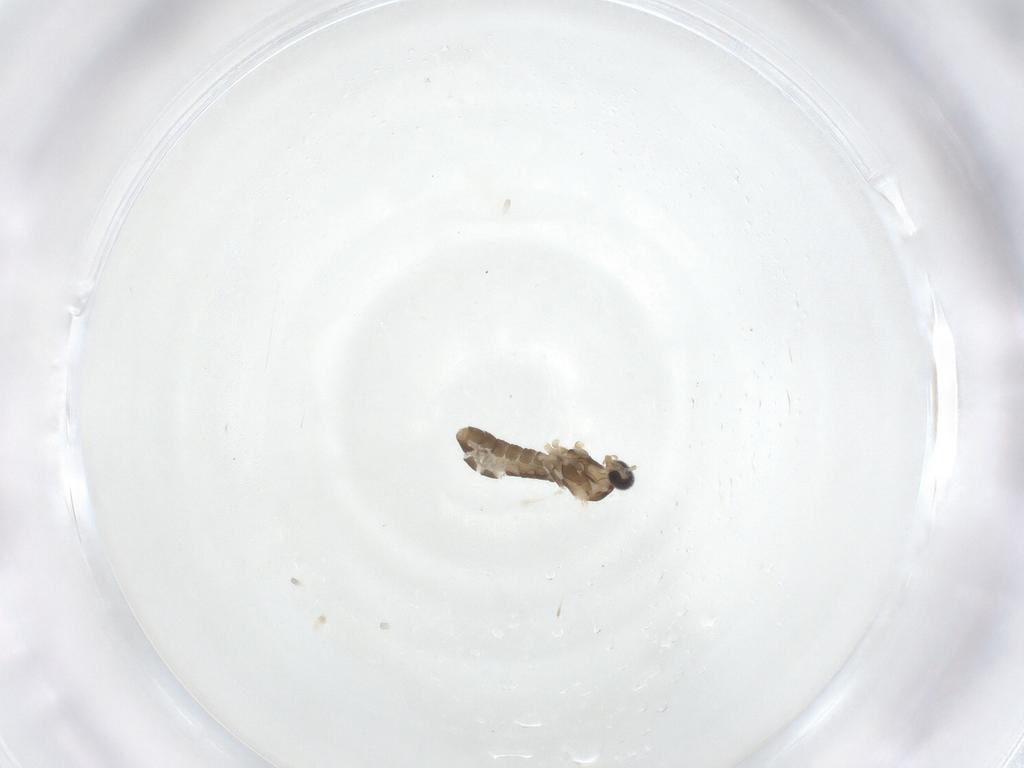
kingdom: Animalia
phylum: Arthropoda
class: Insecta
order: Diptera
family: Cecidomyiidae
